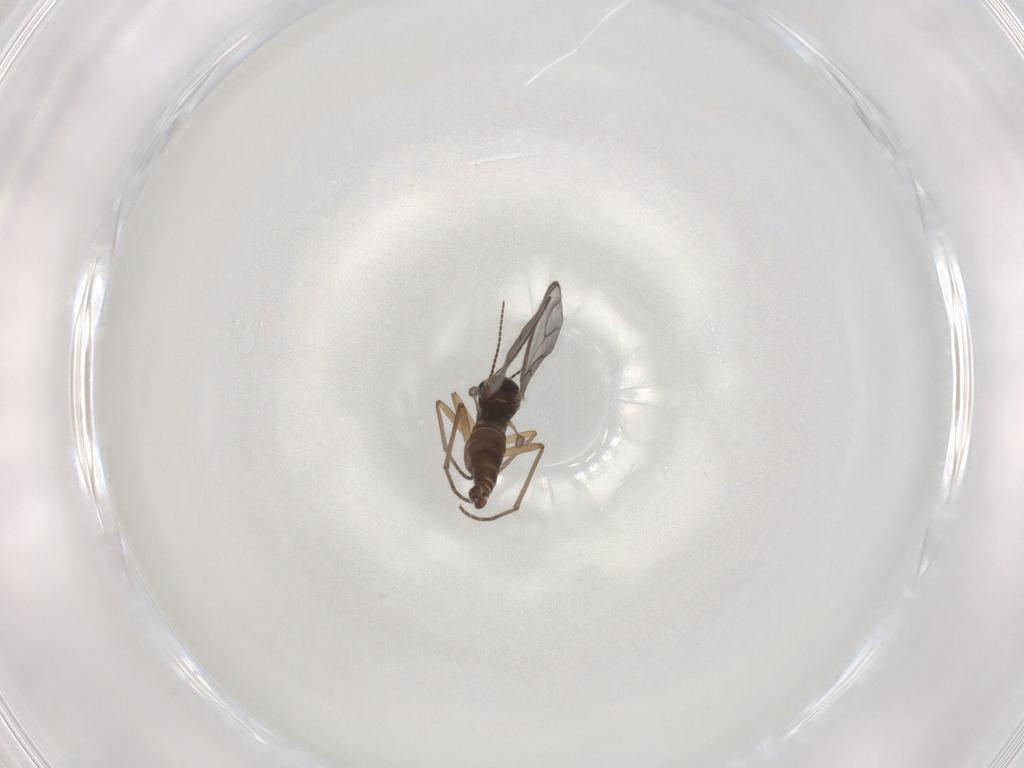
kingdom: Animalia
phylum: Arthropoda
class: Insecta
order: Diptera
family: Sciaridae
